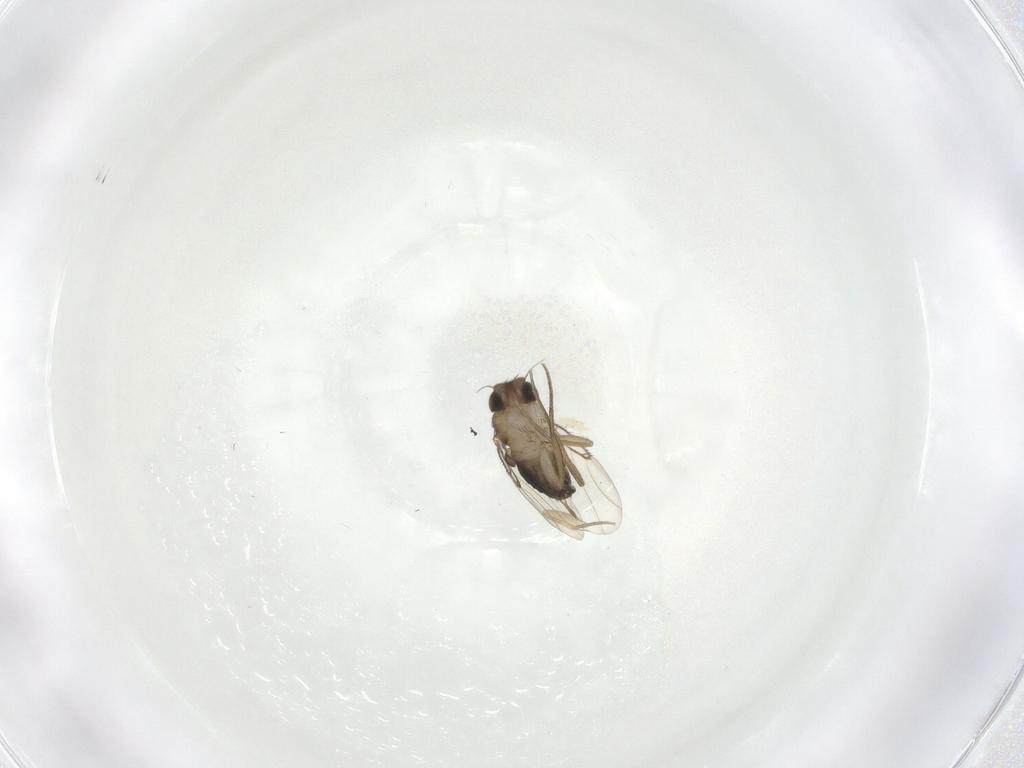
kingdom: Animalia
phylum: Arthropoda
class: Insecta
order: Diptera
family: Phoridae
